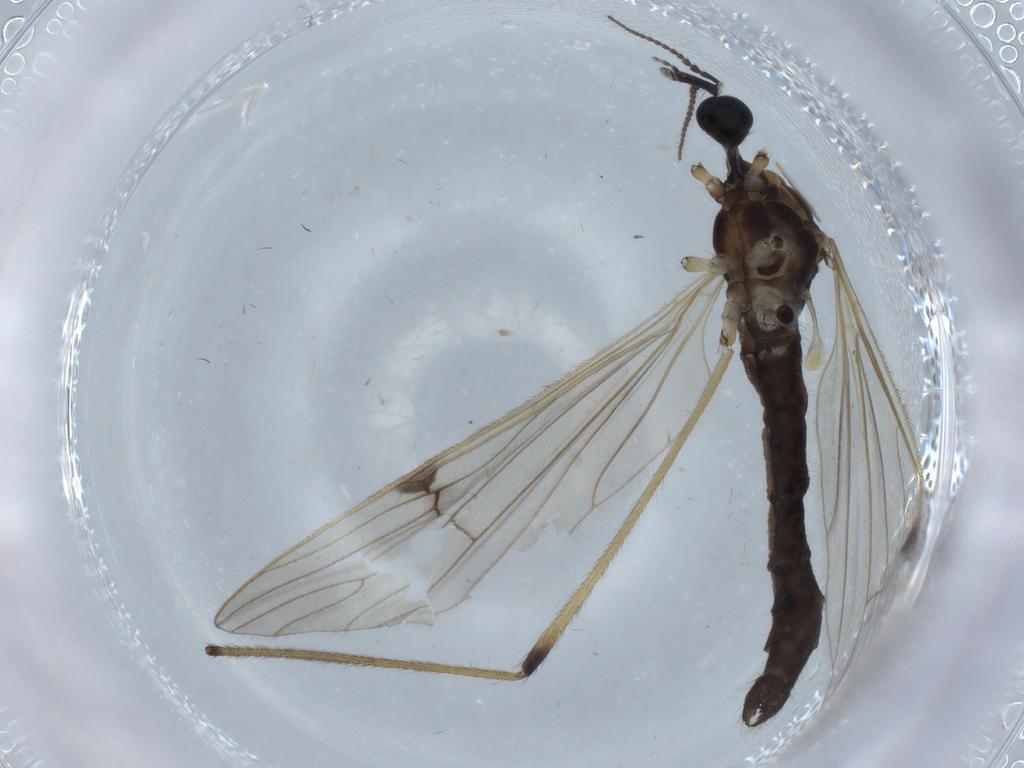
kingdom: Animalia
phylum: Arthropoda
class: Insecta
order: Diptera
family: Phoridae
